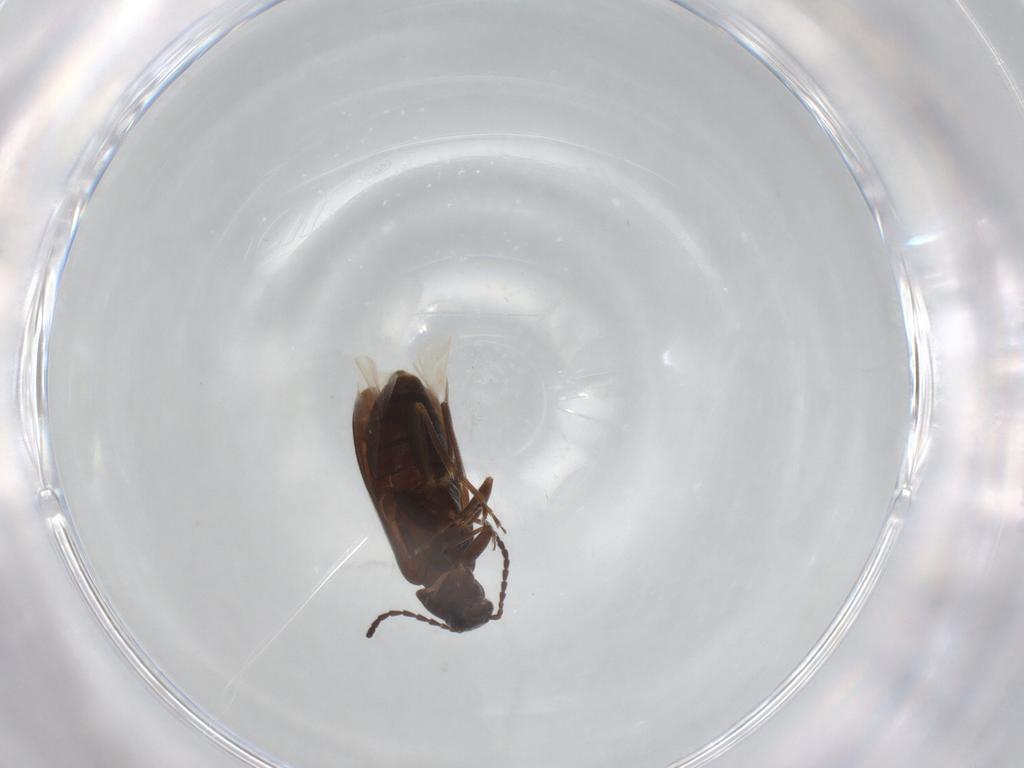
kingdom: Animalia
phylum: Arthropoda
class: Insecta
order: Coleoptera
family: Scraptiidae
